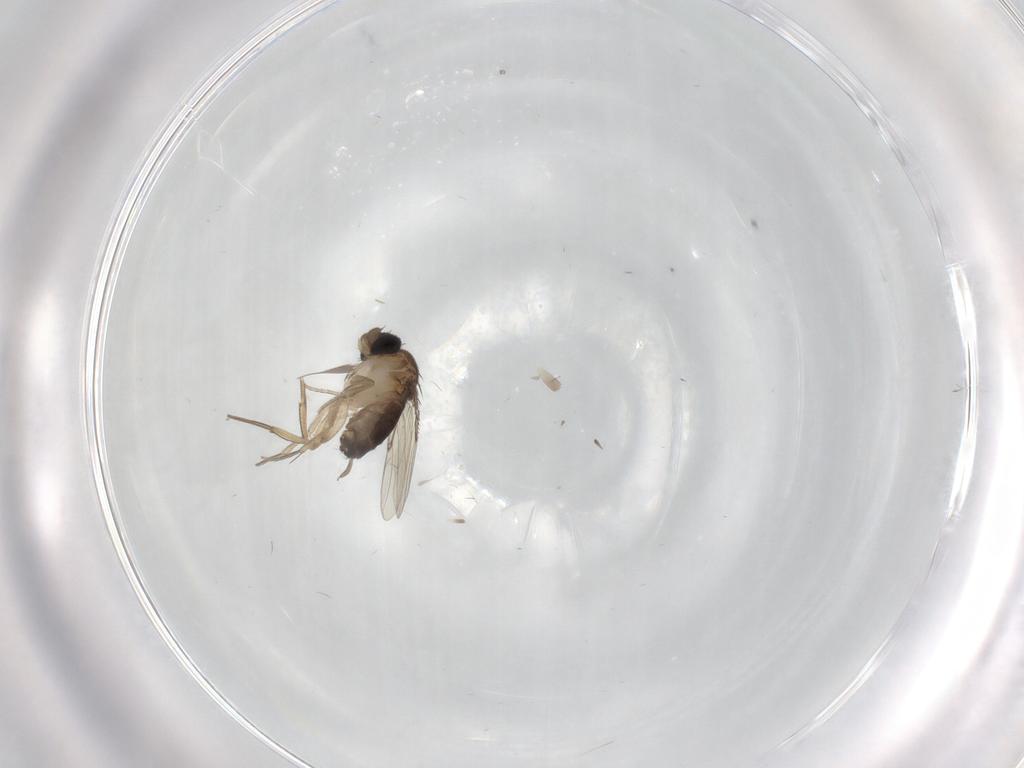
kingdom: Animalia
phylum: Arthropoda
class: Insecta
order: Diptera
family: Chironomidae
